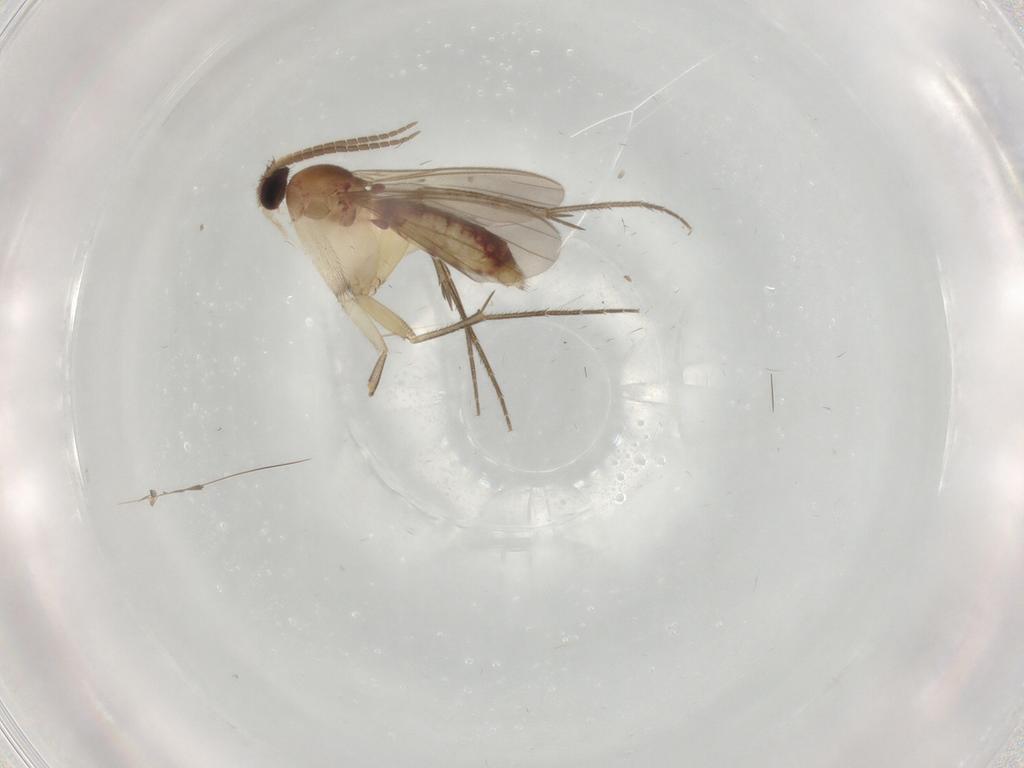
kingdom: Animalia
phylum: Arthropoda
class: Insecta
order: Diptera
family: Mycetophilidae
